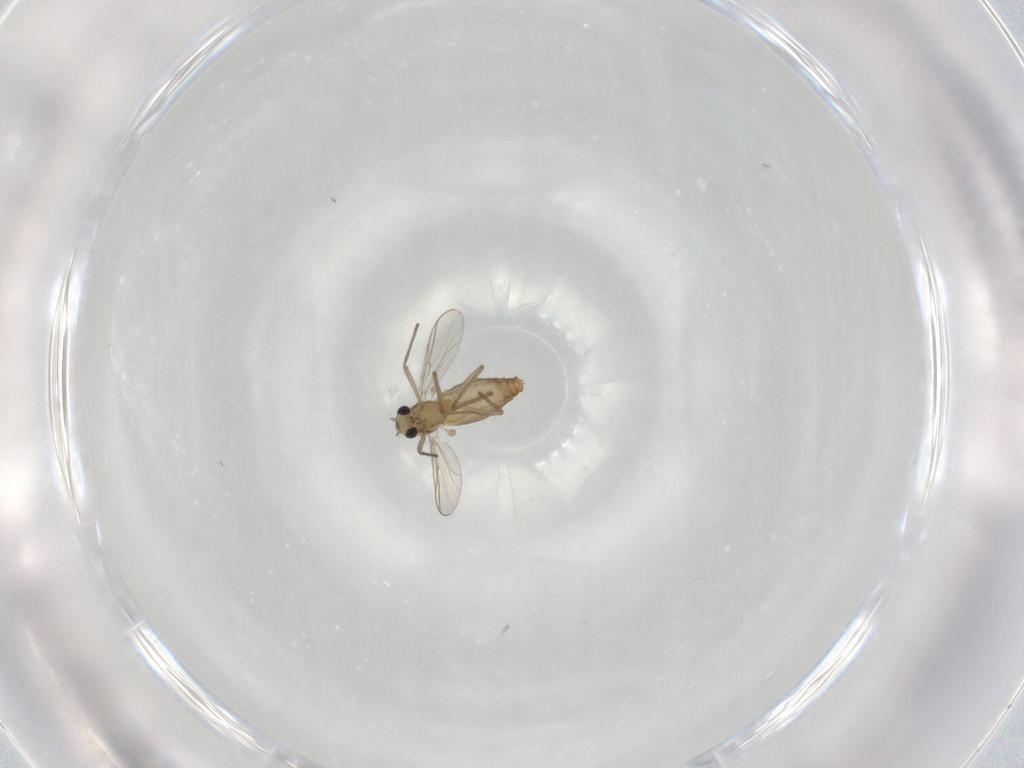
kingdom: Animalia
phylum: Arthropoda
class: Insecta
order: Diptera
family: Chironomidae
